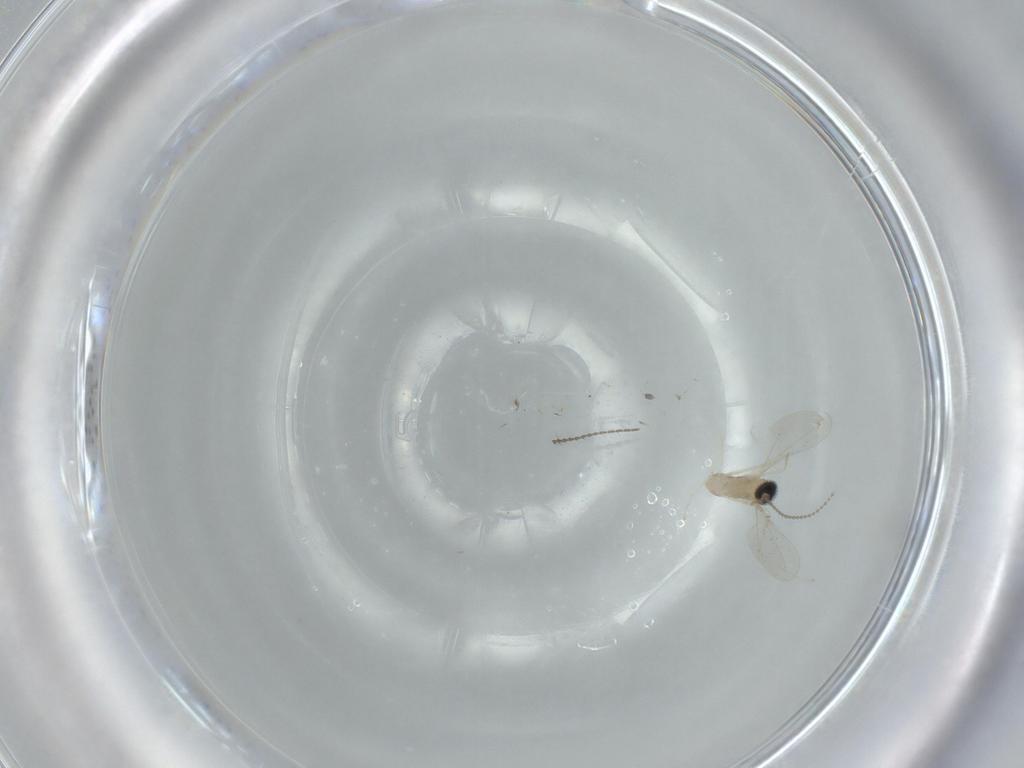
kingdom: Animalia
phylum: Arthropoda
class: Insecta
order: Diptera
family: Cecidomyiidae
